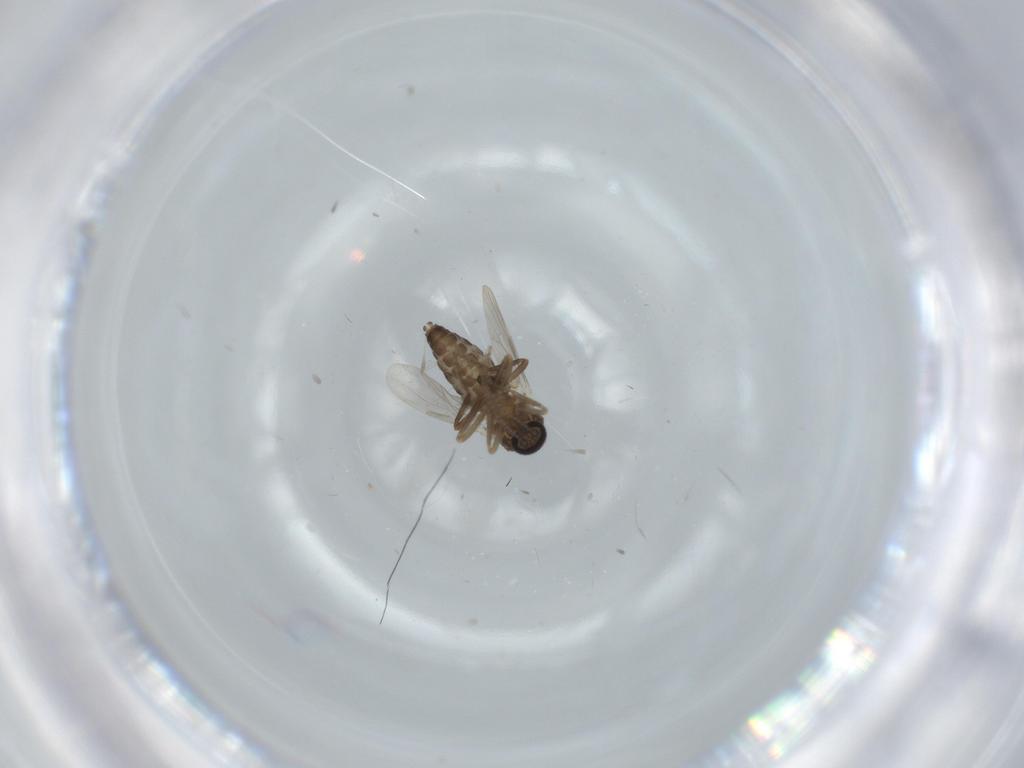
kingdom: Animalia
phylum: Arthropoda
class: Insecta
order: Diptera
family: Ceratopogonidae
